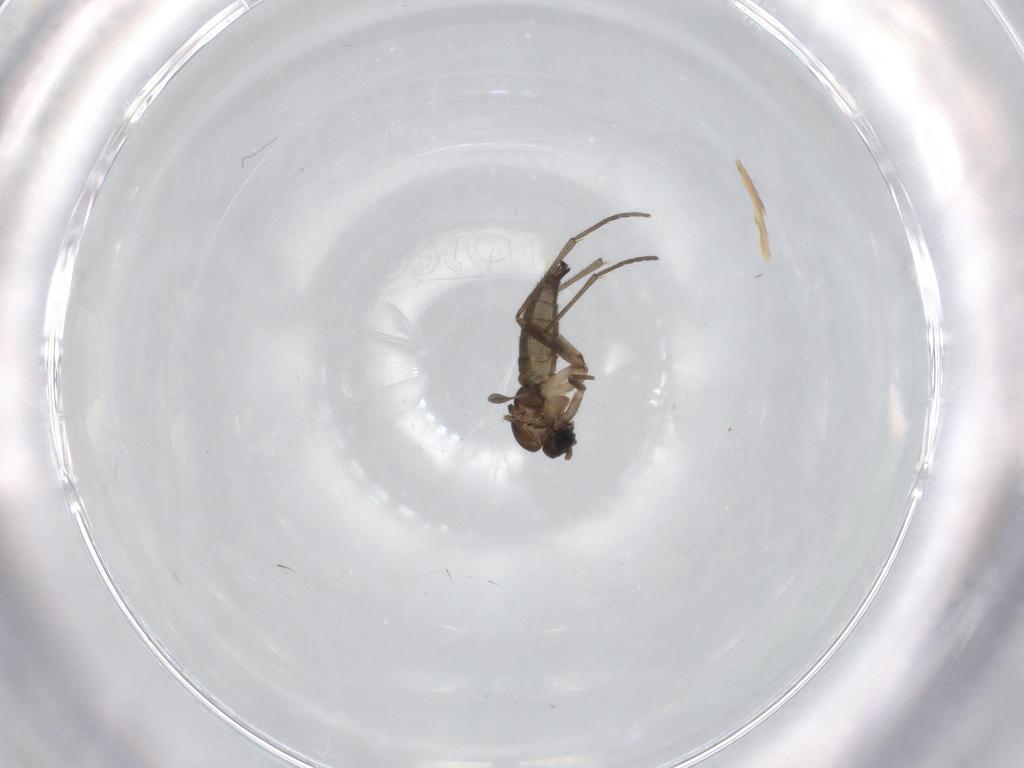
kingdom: Animalia
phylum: Arthropoda
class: Insecta
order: Diptera
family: Sciaridae
